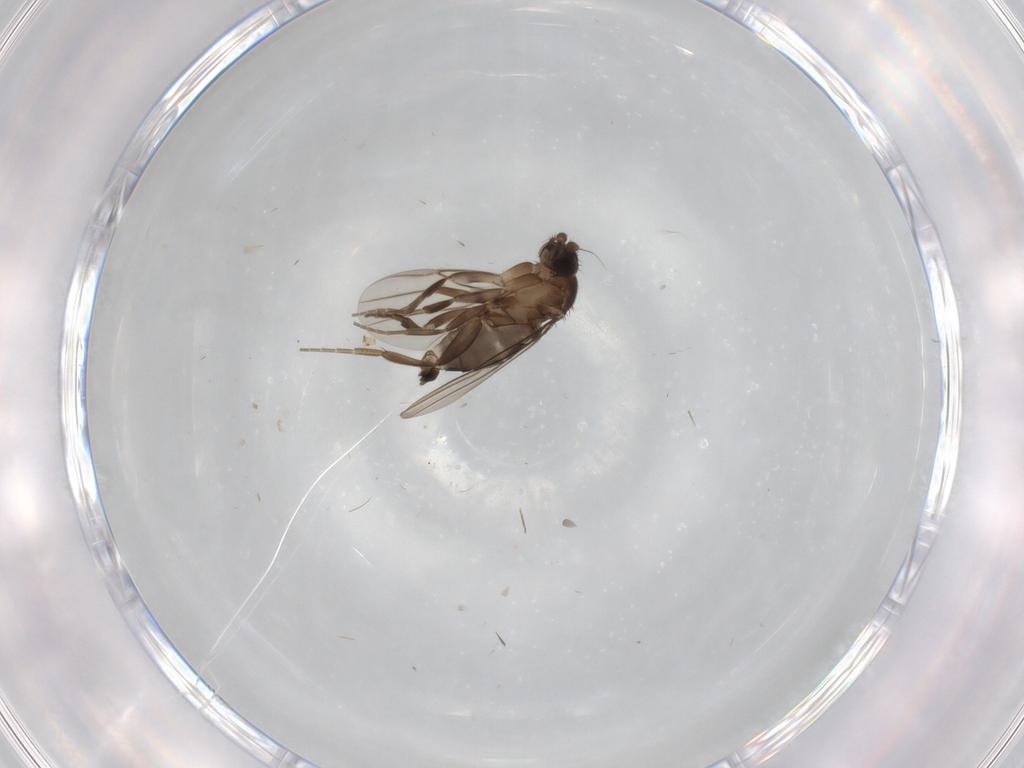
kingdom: Animalia
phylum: Arthropoda
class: Insecta
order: Diptera
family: Phoridae
